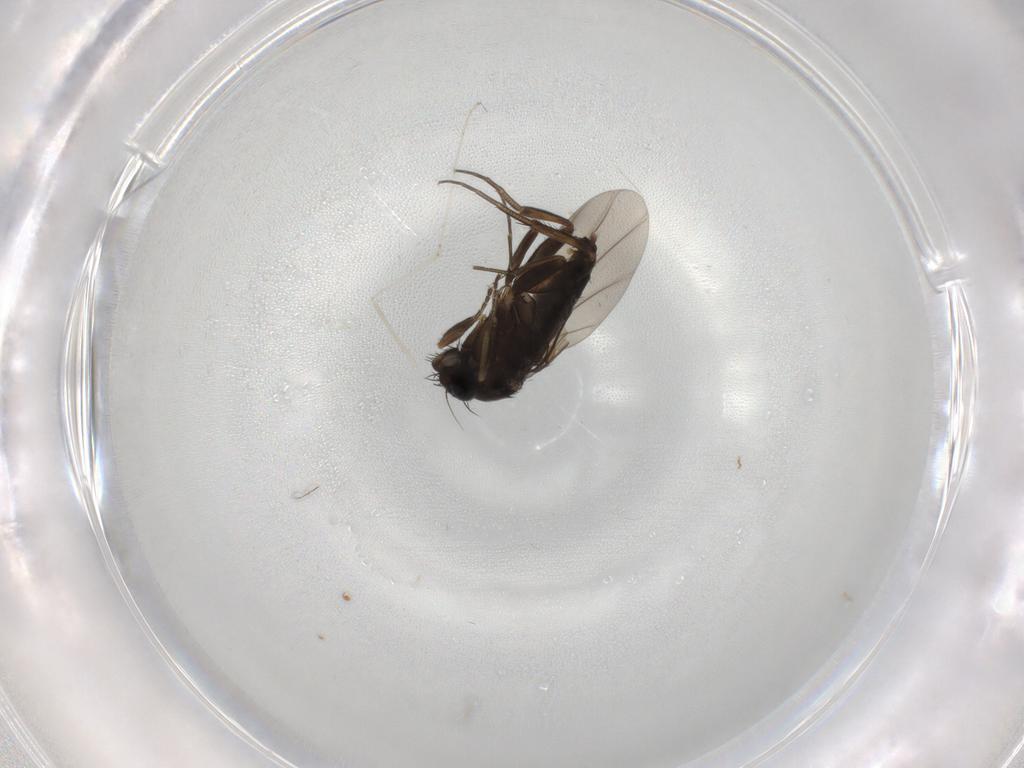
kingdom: Animalia
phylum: Arthropoda
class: Insecta
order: Diptera
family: Phoridae
